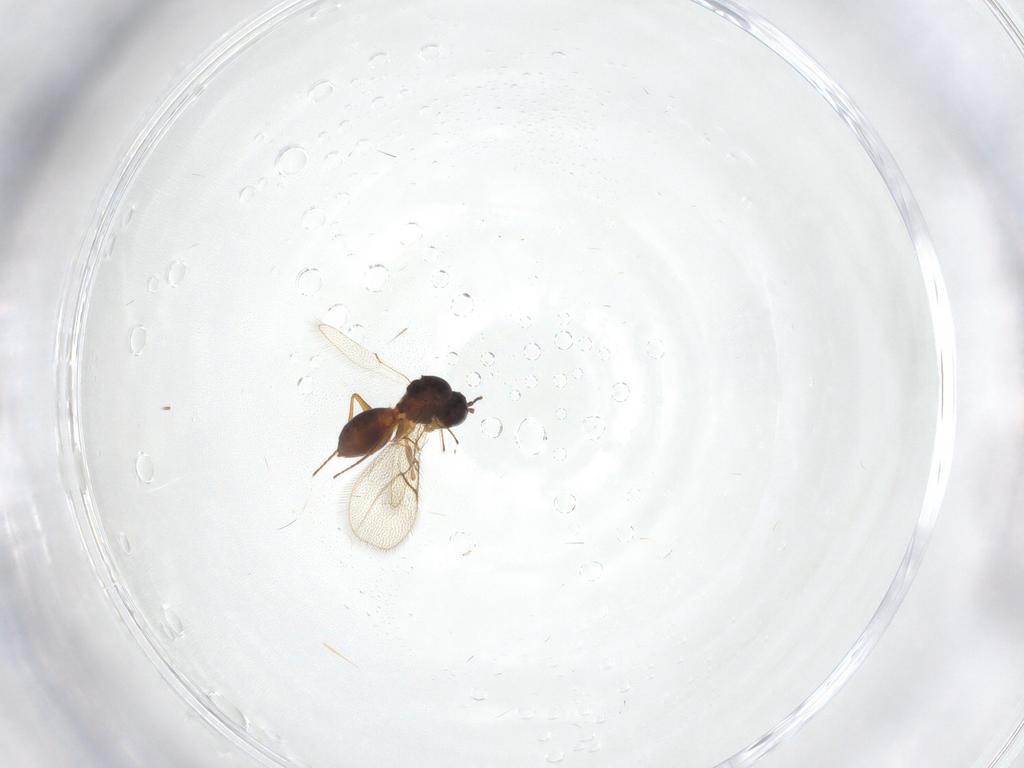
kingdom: Animalia
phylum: Arthropoda
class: Insecta
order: Hymenoptera
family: Figitidae
